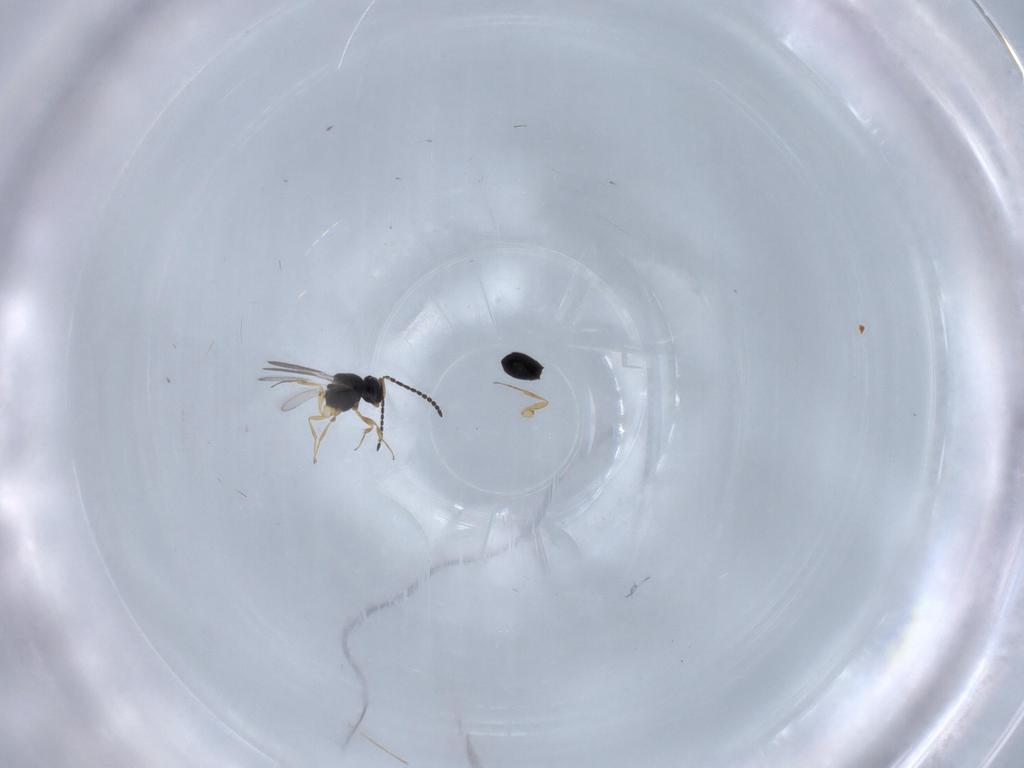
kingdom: Animalia
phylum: Arthropoda
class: Insecta
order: Hymenoptera
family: Scelionidae
